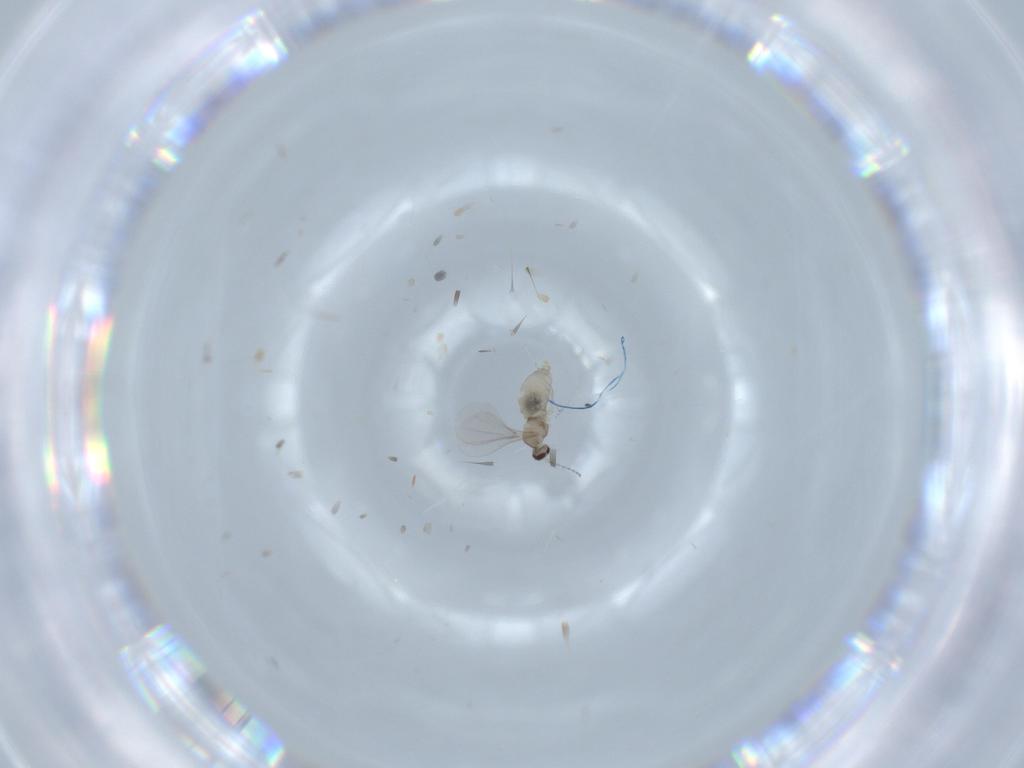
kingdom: Animalia
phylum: Arthropoda
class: Insecta
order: Diptera
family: Cecidomyiidae
